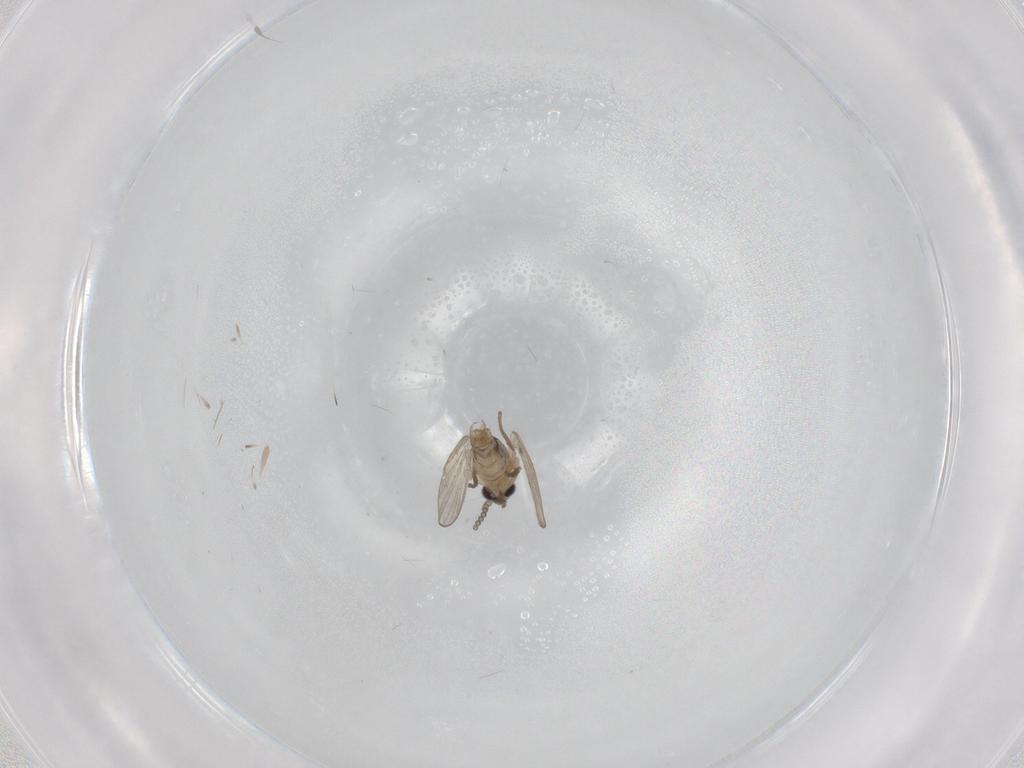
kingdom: Animalia
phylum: Arthropoda
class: Insecta
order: Diptera
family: Psychodidae
